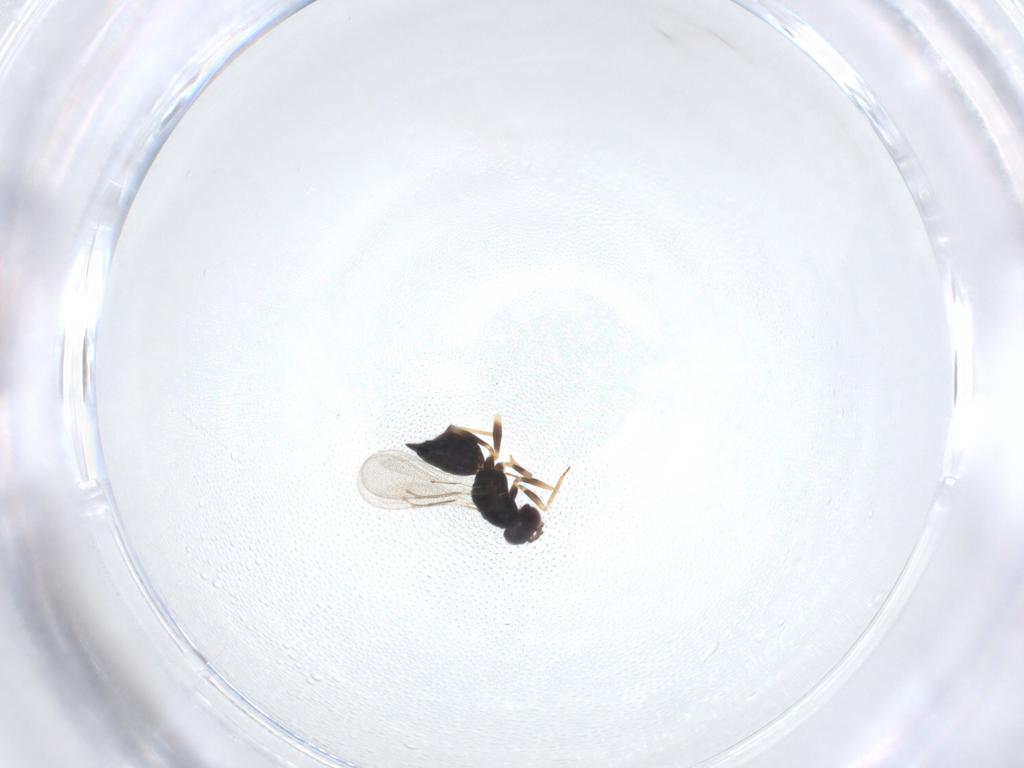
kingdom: Animalia
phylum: Arthropoda
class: Insecta
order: Hymenoptera
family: Eulophidae
